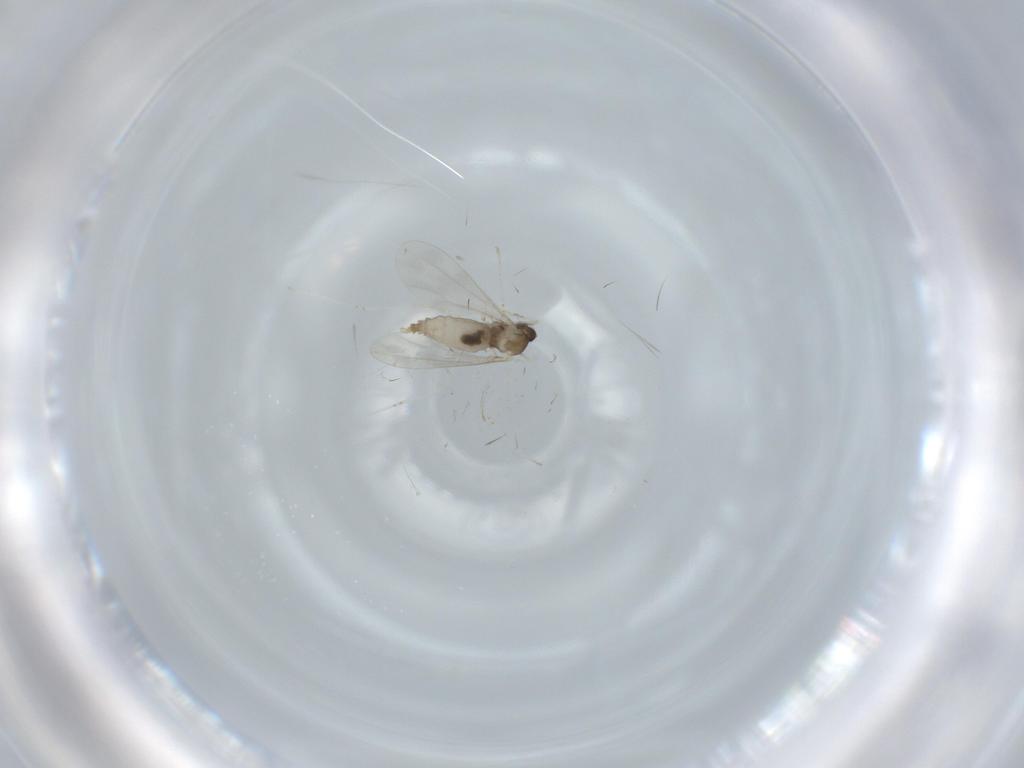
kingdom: Animalia
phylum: Arthropoda
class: Insecta
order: Diptera
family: Cecidomyiidae
